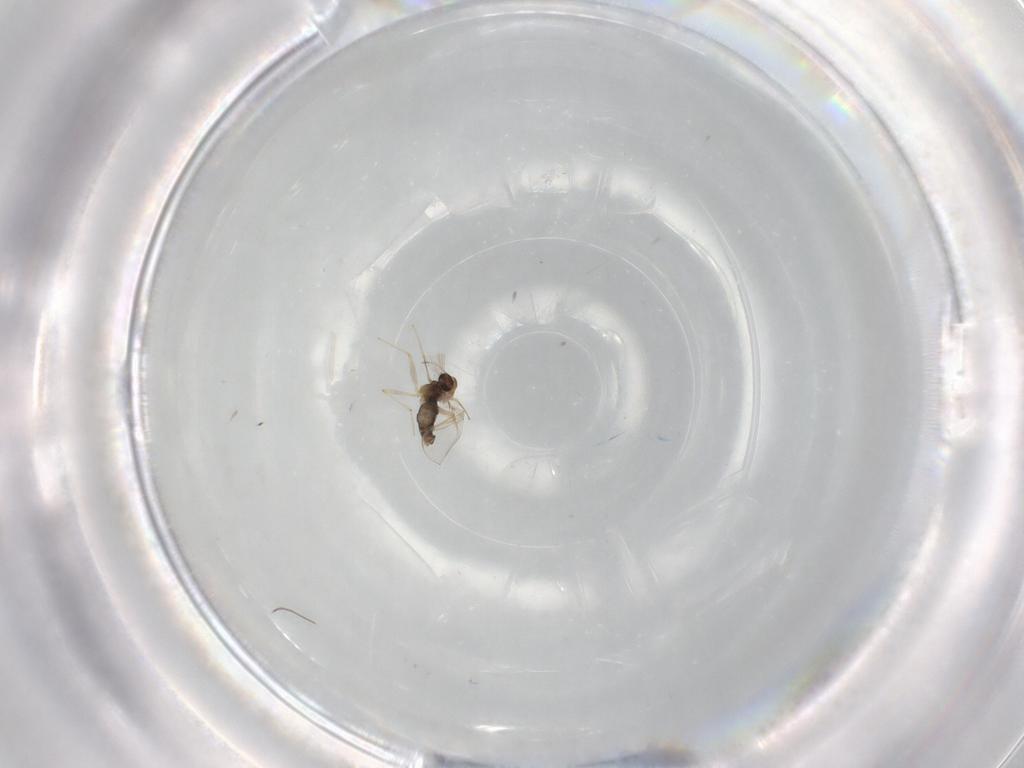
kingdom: Animalia
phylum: Arthropoda
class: Insecta
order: Diptera
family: Chironomidae
